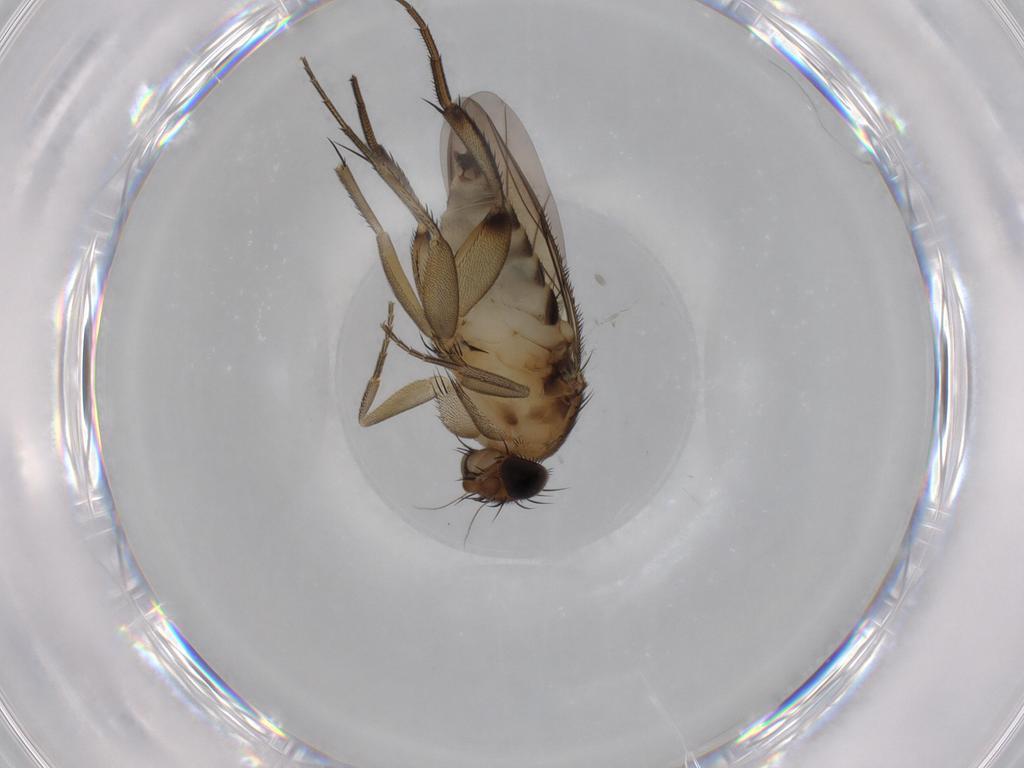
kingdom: Animalia
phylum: Arthropoda
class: Insecta
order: Diptera
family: Phoridae
